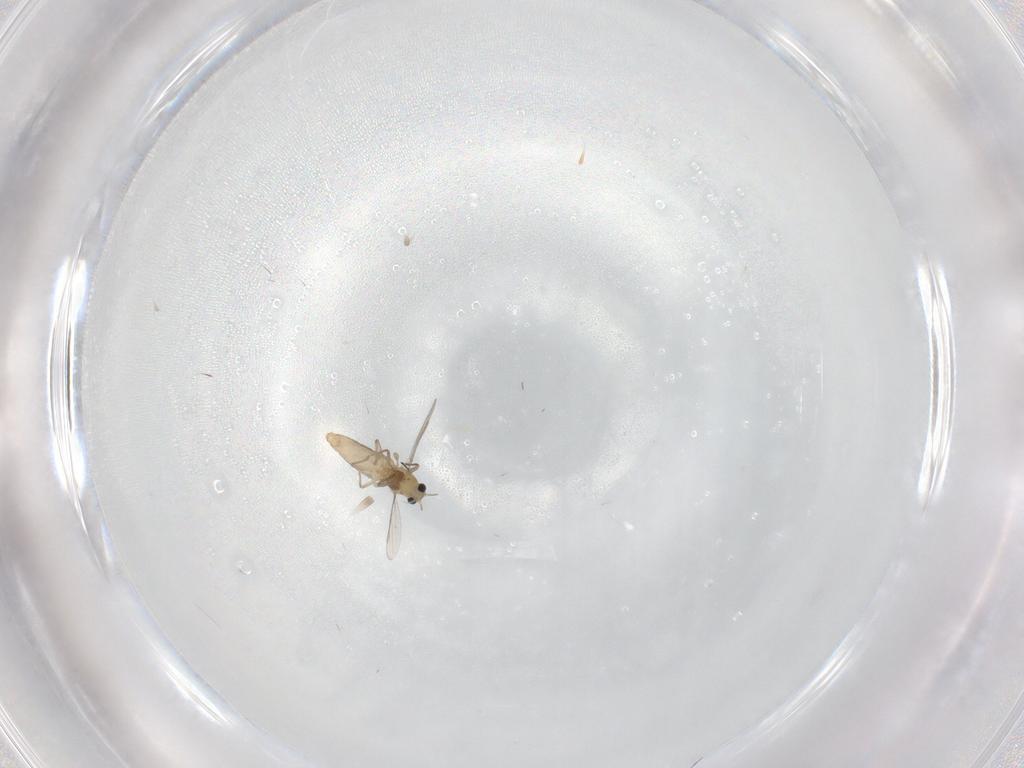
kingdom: Animalia
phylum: Arthropoda
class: Insecta
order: Diptera
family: Chironomidae
